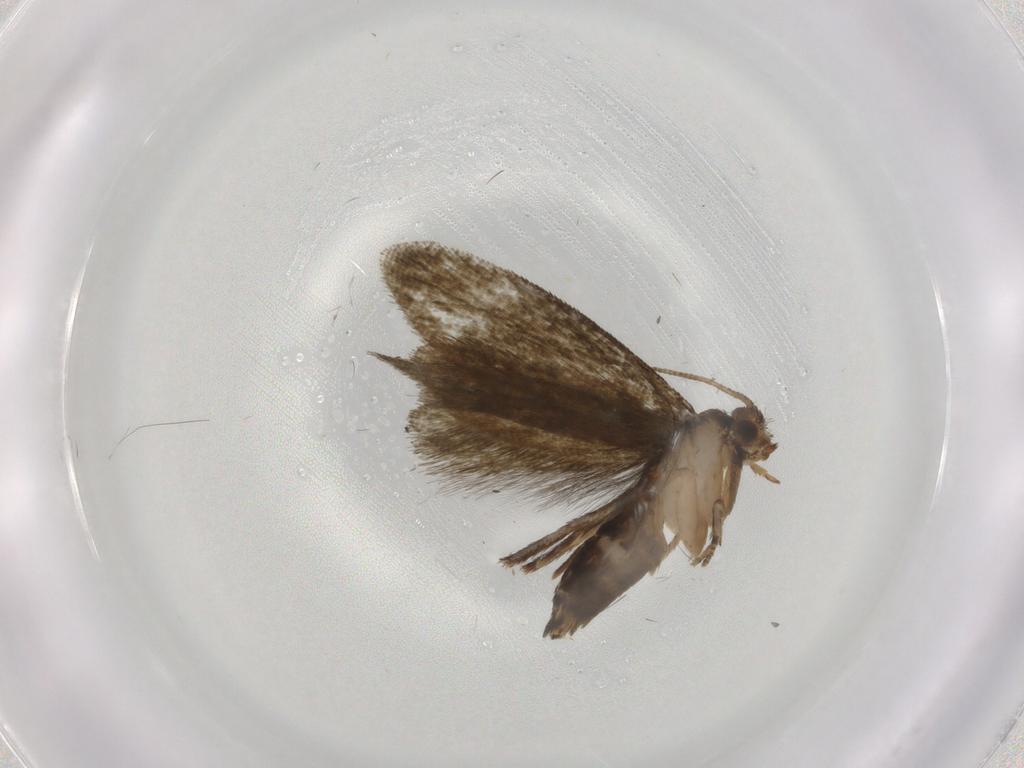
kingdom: Animalia
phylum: Arthropoda
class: Insecta
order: Lepidoptera
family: Crambidae
